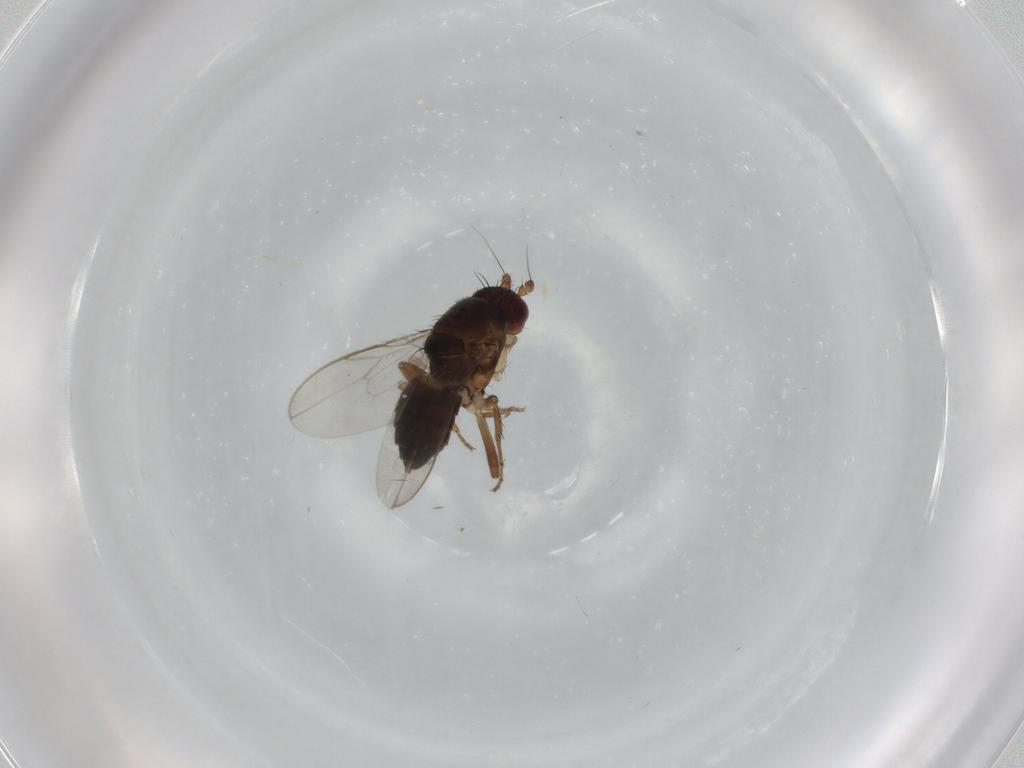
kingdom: Animalia
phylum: Arthropoda
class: Insecta
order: Diptera
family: Sphaeroceridae
